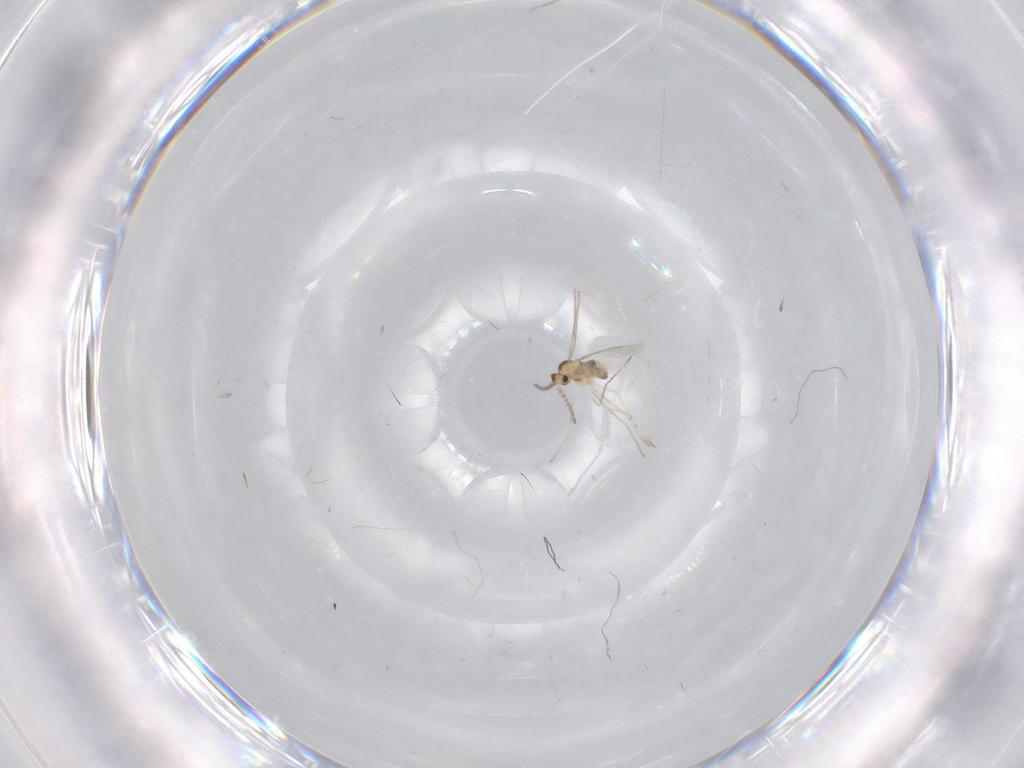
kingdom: Animalia
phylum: Arthropoda
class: Insecta
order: Diptera
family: Cecidomyiidae
